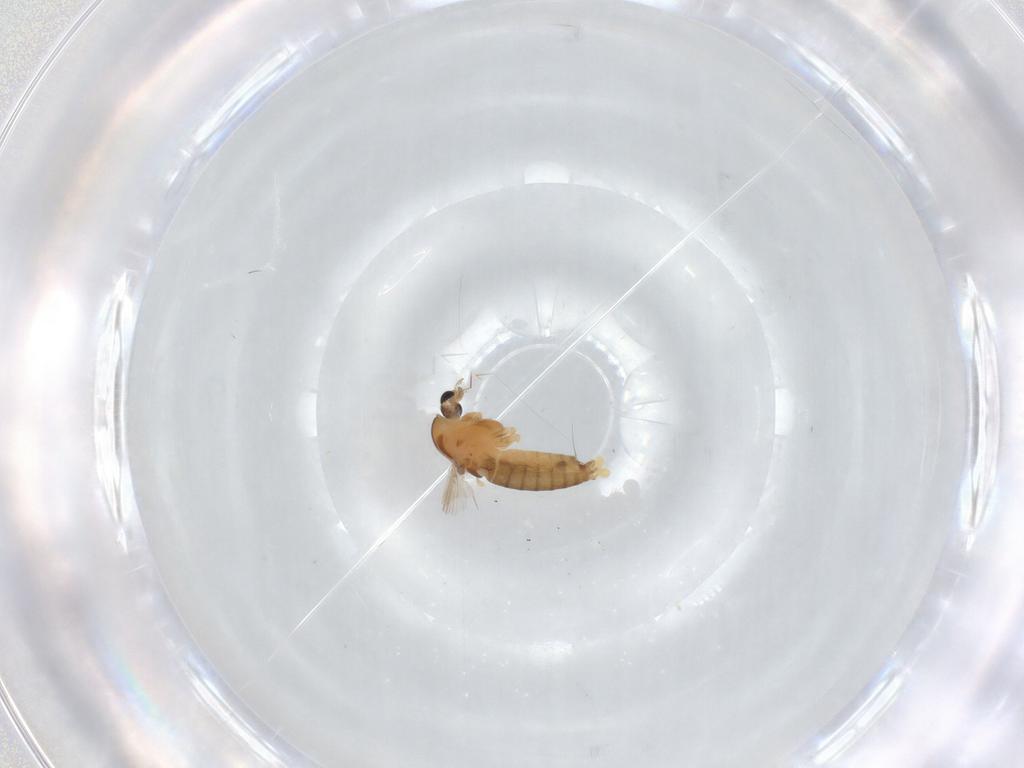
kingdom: Animalia
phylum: Arthropoda
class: Insecta
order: Diptera
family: Chironomidae
